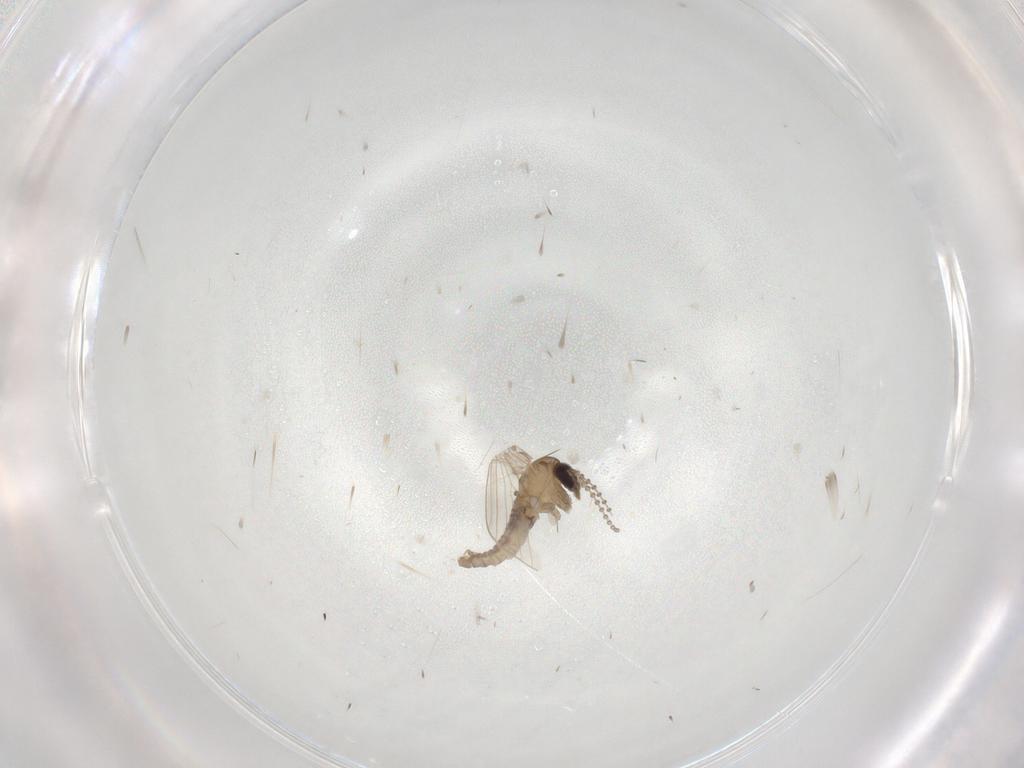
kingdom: Animalia
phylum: Arthropoda
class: Insecta
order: Diptera
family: Psychodidae
